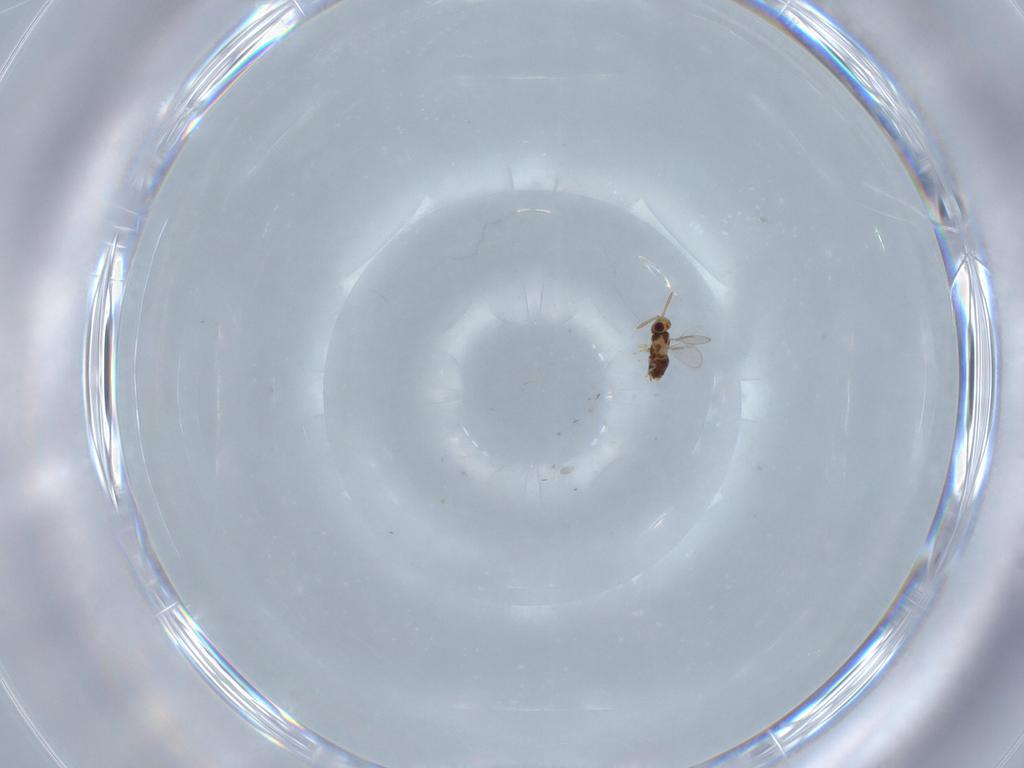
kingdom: Animalia
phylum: Arthropoda
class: Insecta
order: Hymenoptera
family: Aphelinidae
